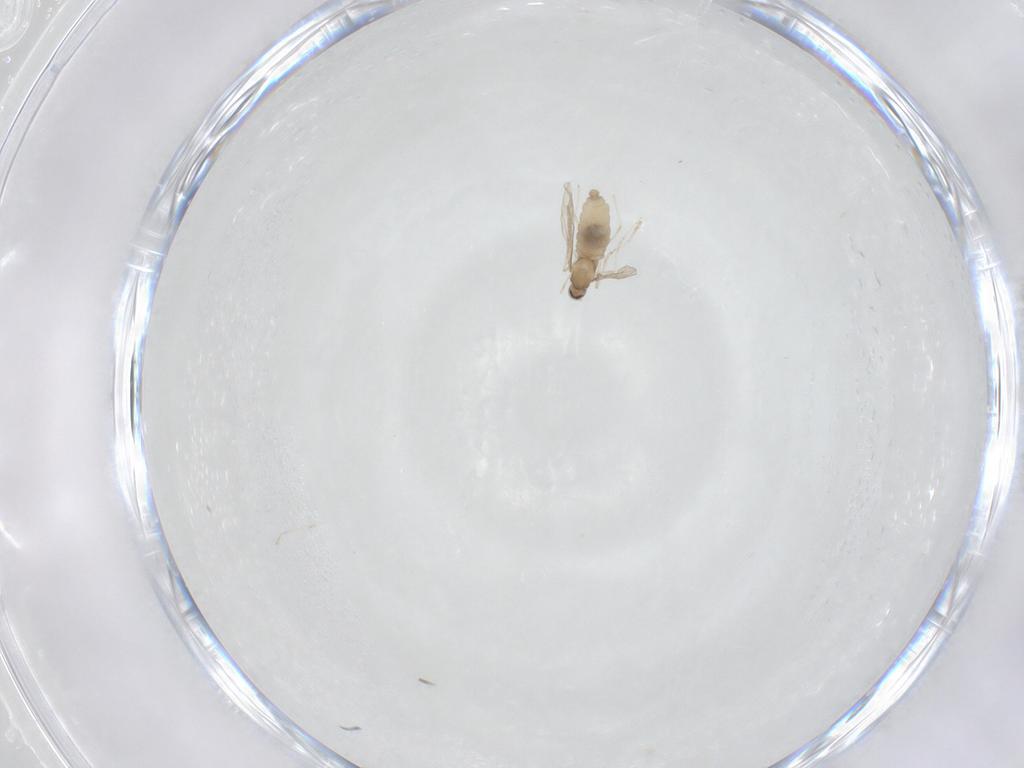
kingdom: Animalia
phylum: Arthropoda
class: Insecta
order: Diptera
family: Cecidomyiidae
